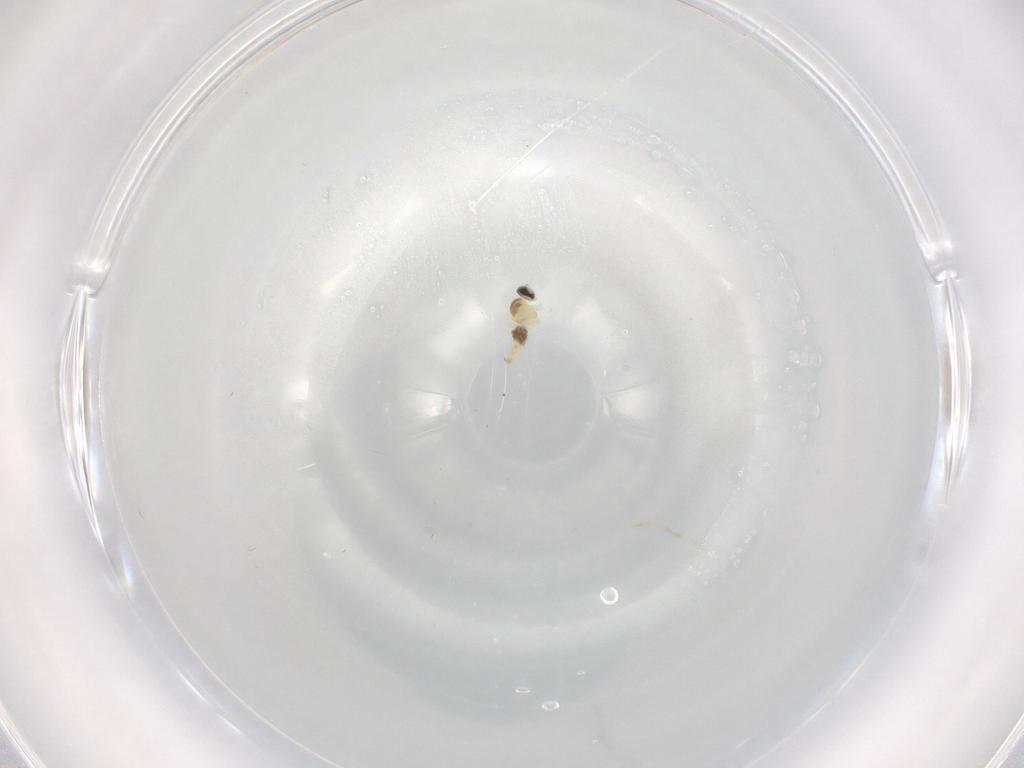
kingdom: Animalia
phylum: Arthropoda
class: Insecta
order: Diptera
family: Cecidomyiidae
